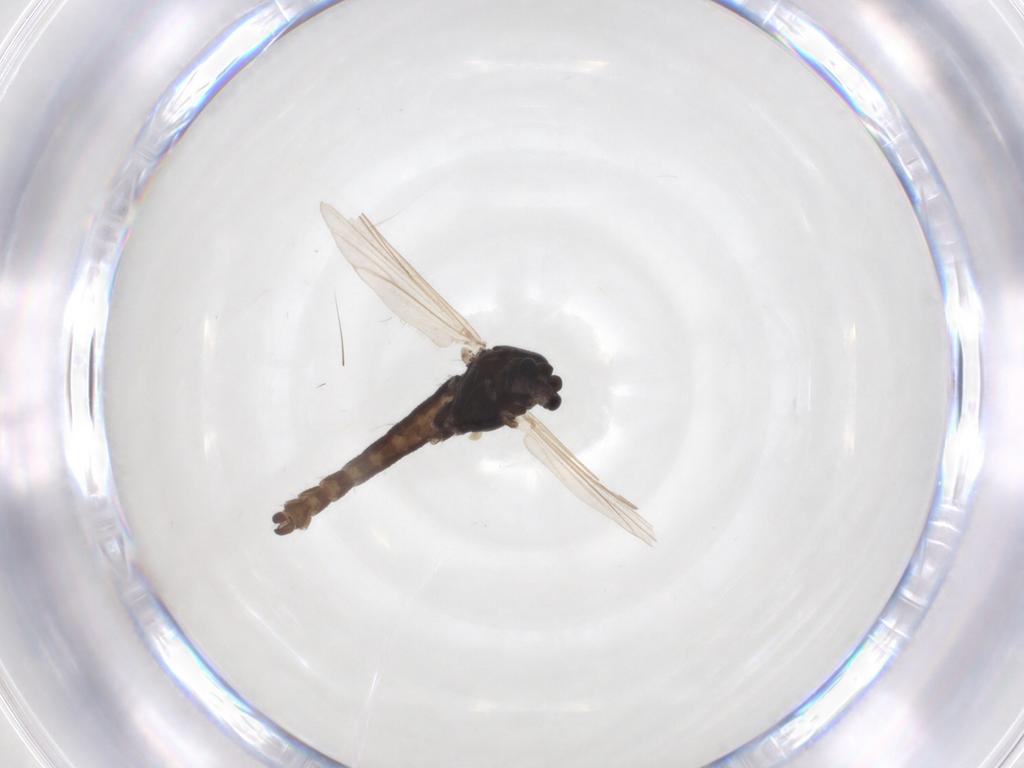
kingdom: Animalia
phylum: Arthropoda
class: Insecta
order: Diptera
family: Chironomidae
